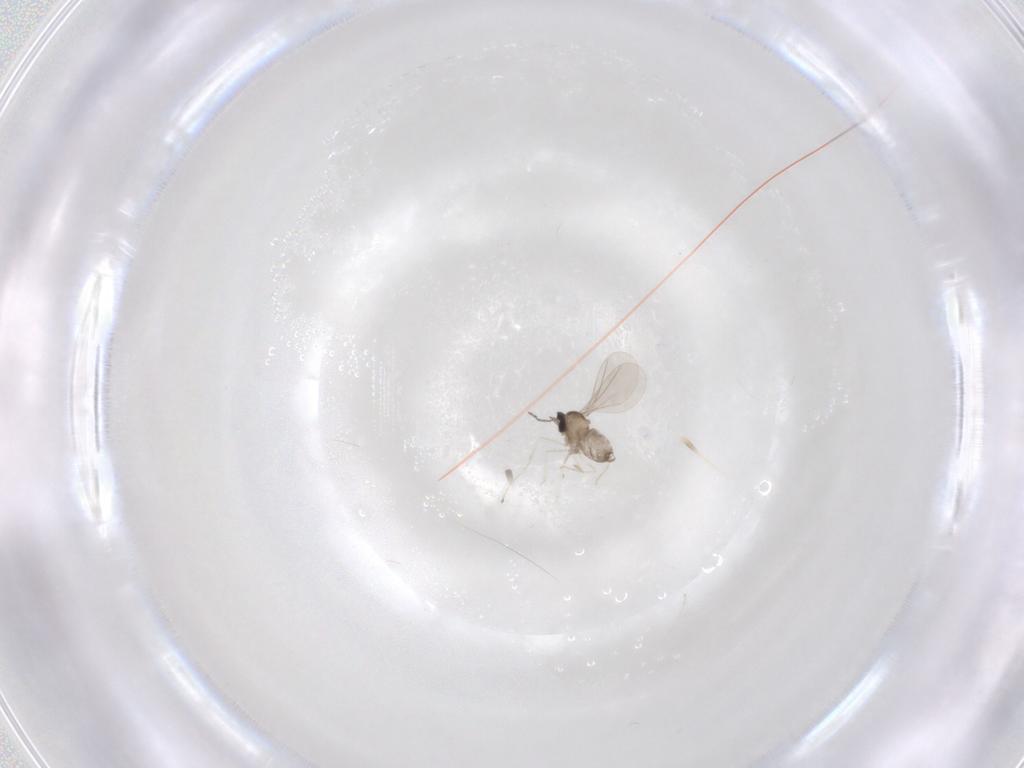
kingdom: Animalia
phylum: Arthropoda
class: Insecta
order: Diptera
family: Cecidomyiidae
